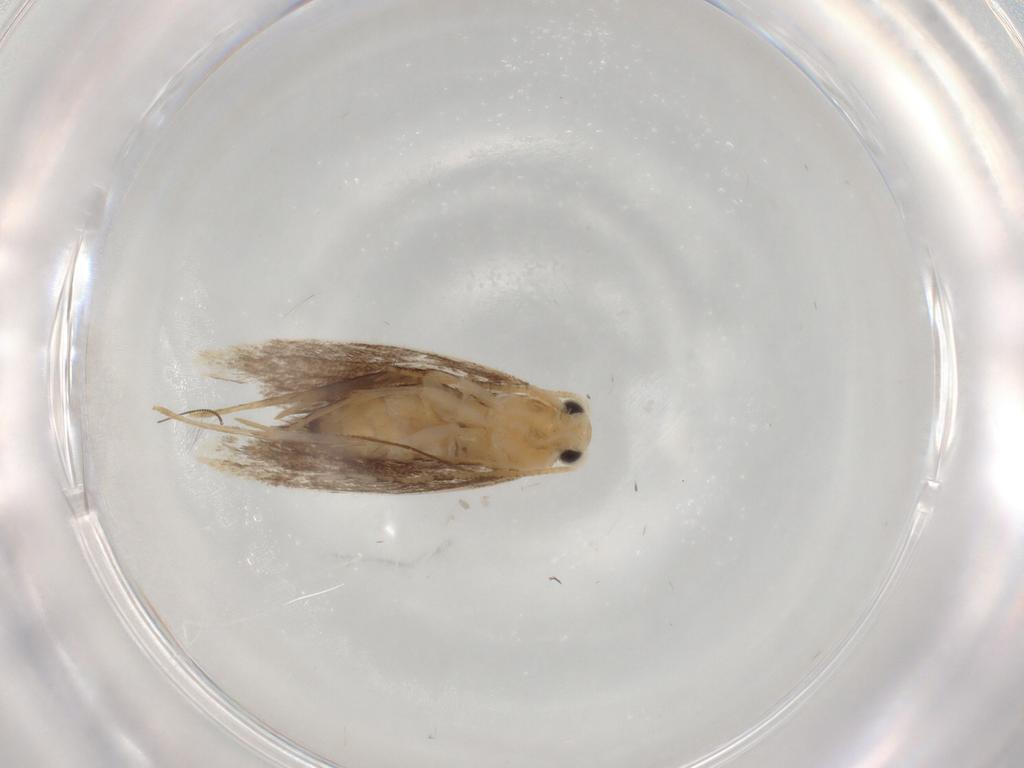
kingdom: Animalia
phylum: Arthropoda
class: Insecta
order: Lepidoptera
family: Dryadaulidae
